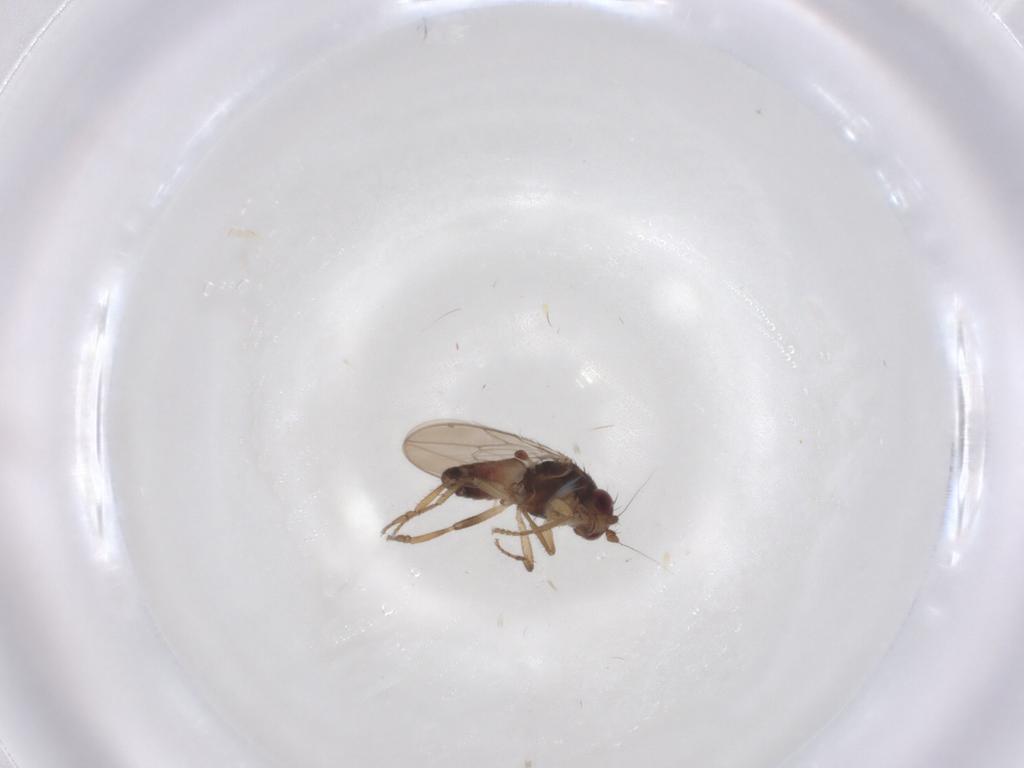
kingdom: Animalia
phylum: Arthropoda
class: Insecta
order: Diptera
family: Sphaeroceridae
